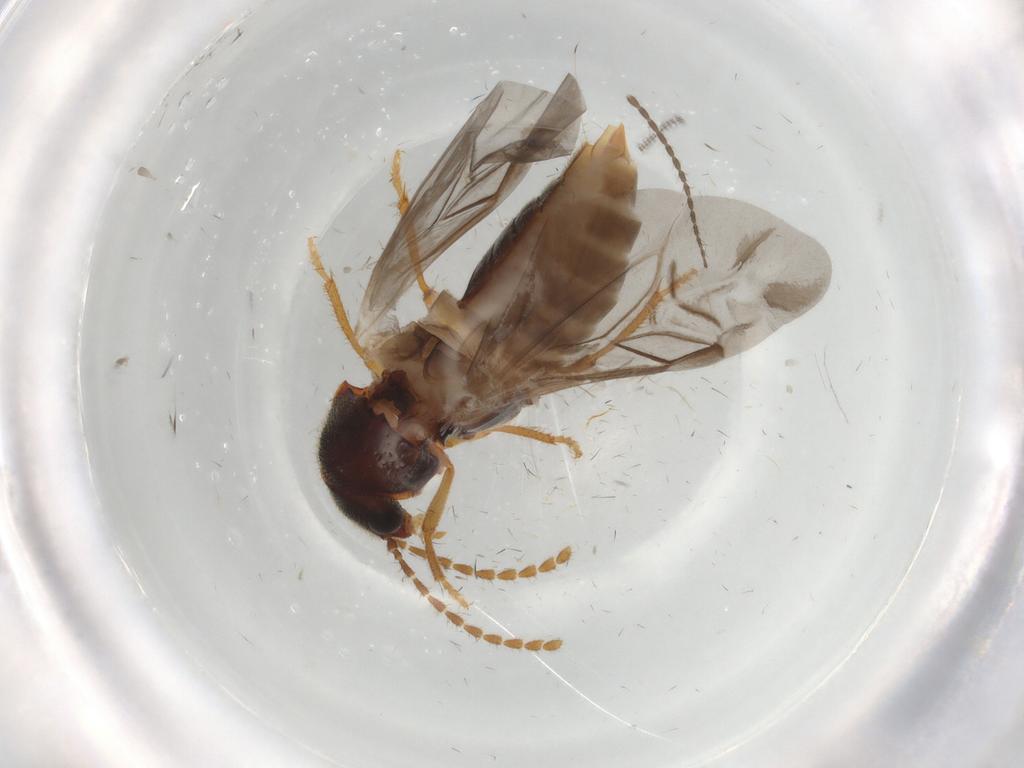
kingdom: Animalia
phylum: Arthropoda
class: Insecta
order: Coleoptera
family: Ptilodactylidae
